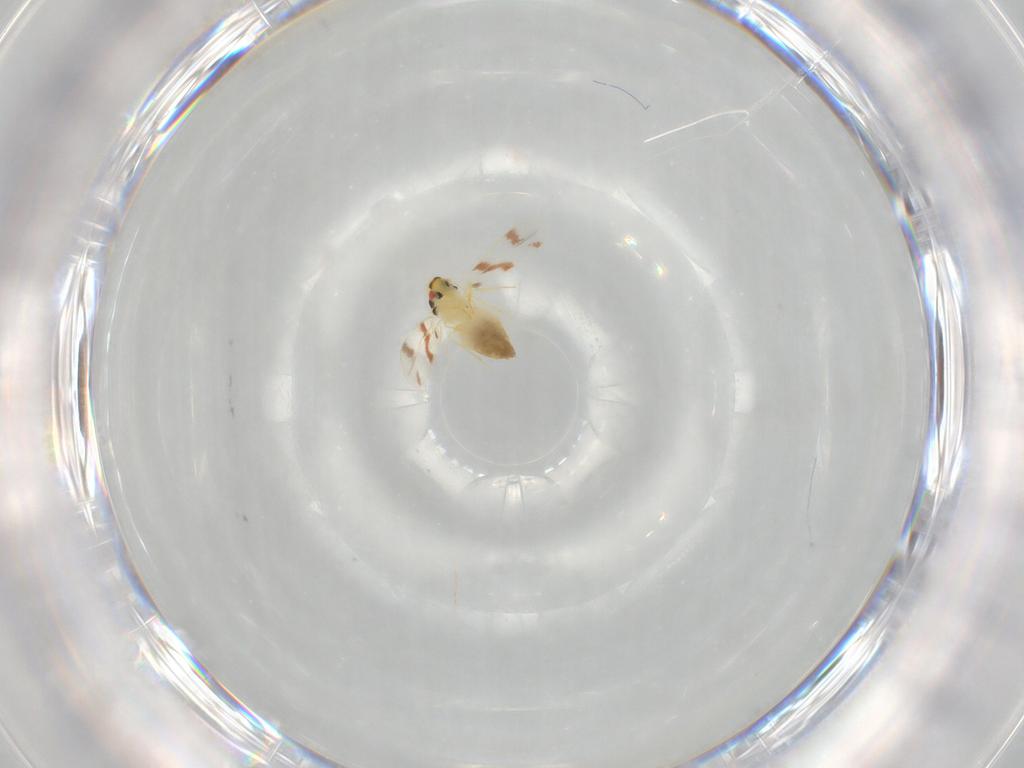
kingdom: Animalia
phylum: Arthropoda
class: Insecta
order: Hemiptera
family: Aleyrodidae
